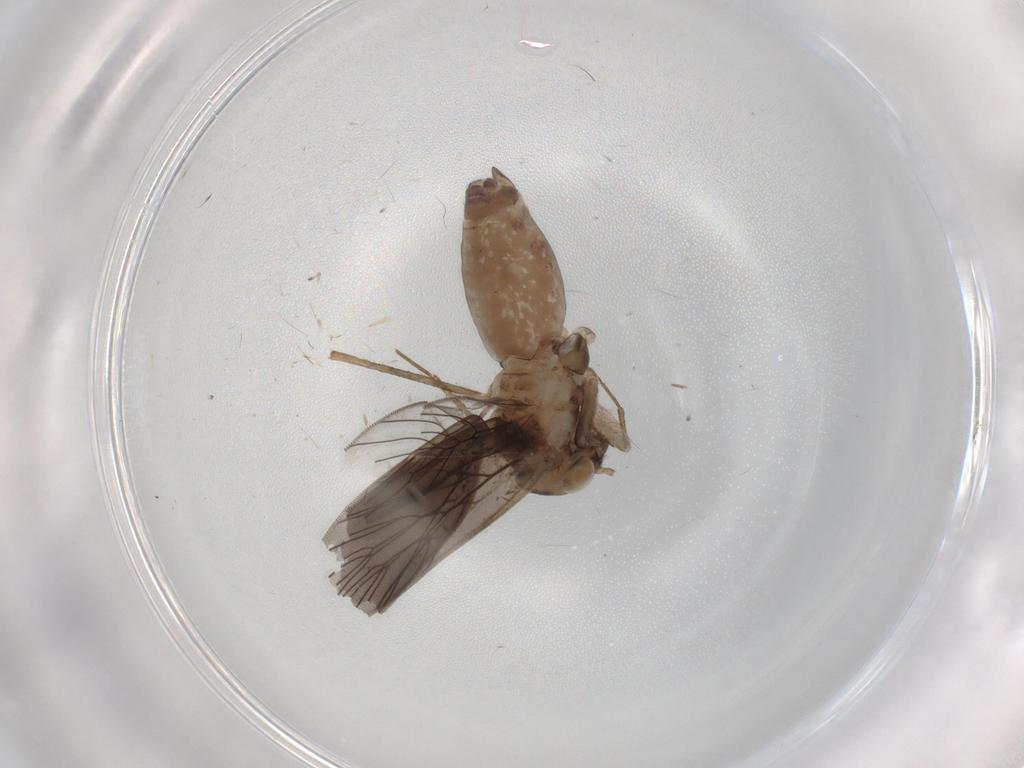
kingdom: Animalia
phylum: Arthropoda
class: Insecta
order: Psocodea
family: Lepidopsocidae
